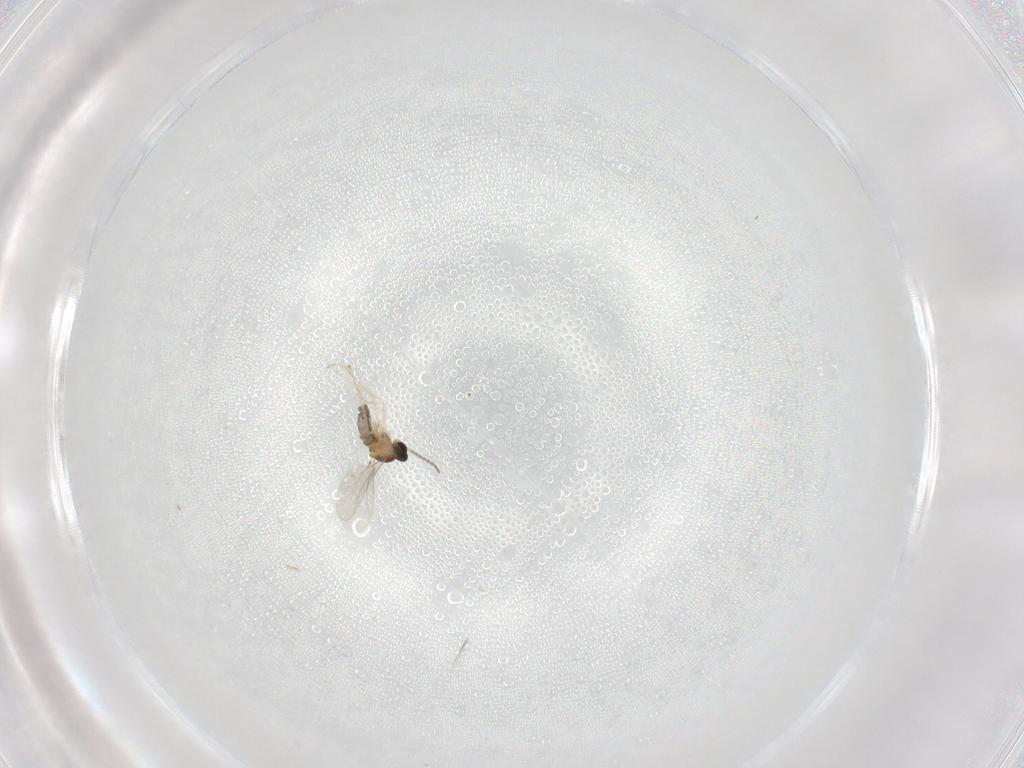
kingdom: Animalia
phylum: Arthropoda
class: Insecta
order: Diptera
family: Cecidomyiidae
